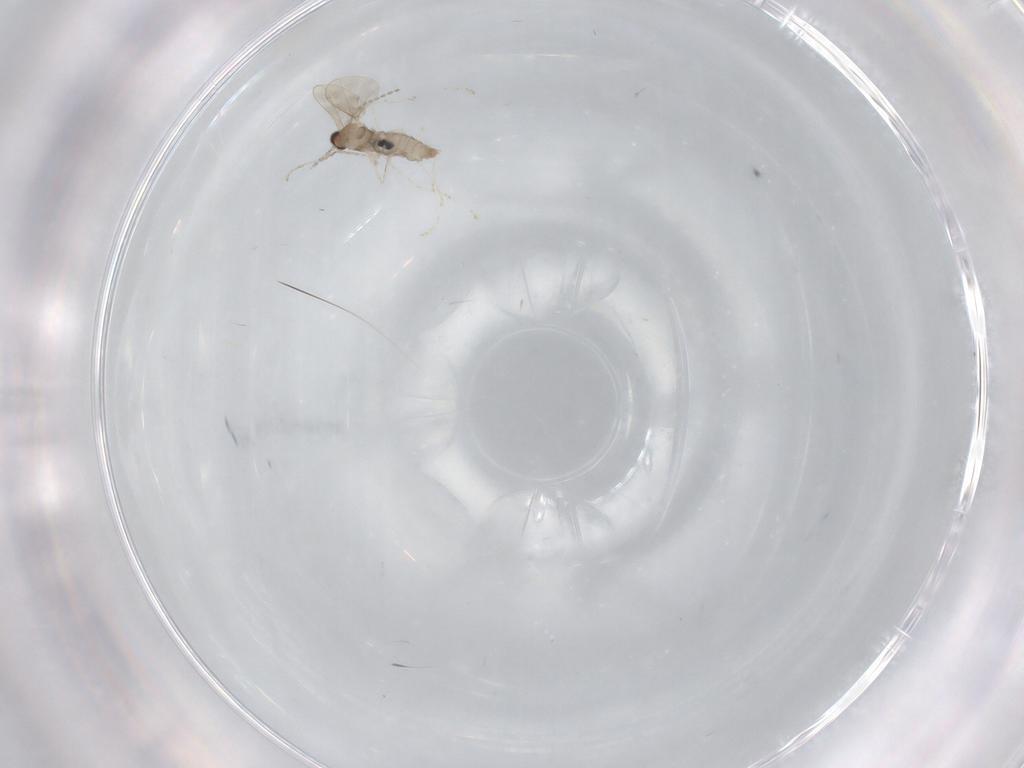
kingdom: Animalia
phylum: Arthropoda
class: Insecta
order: Diptera
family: Cecidomyiidae
